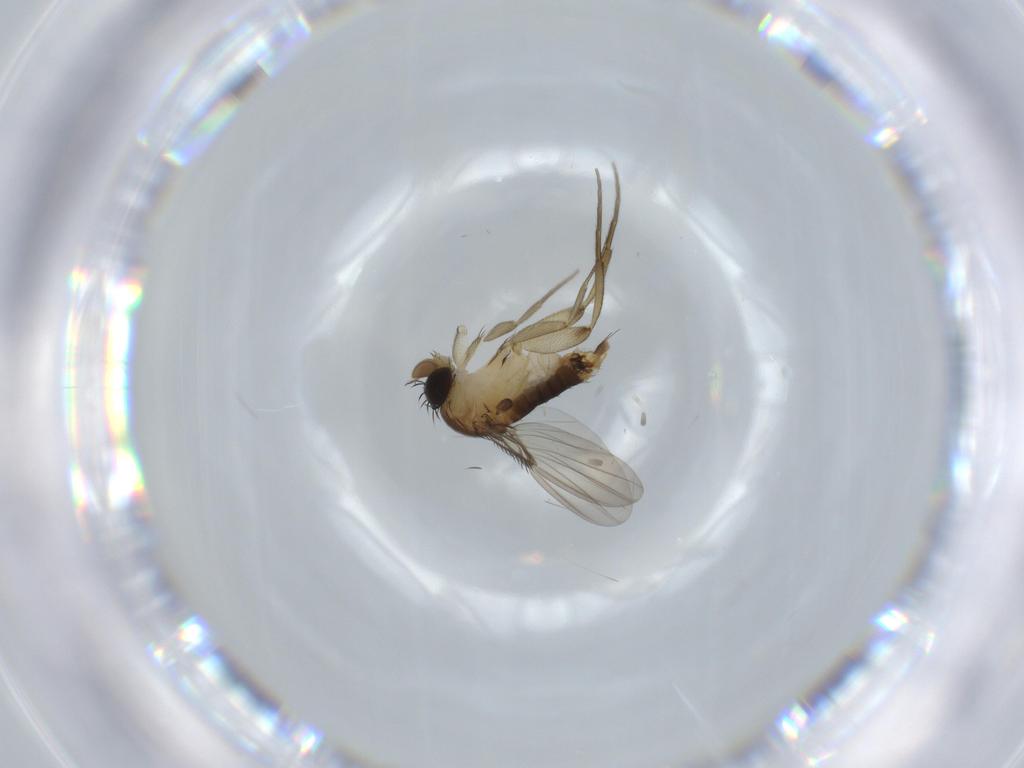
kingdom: Animalia
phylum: Arthropoda
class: Insecta
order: Diptera
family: Phoridae
